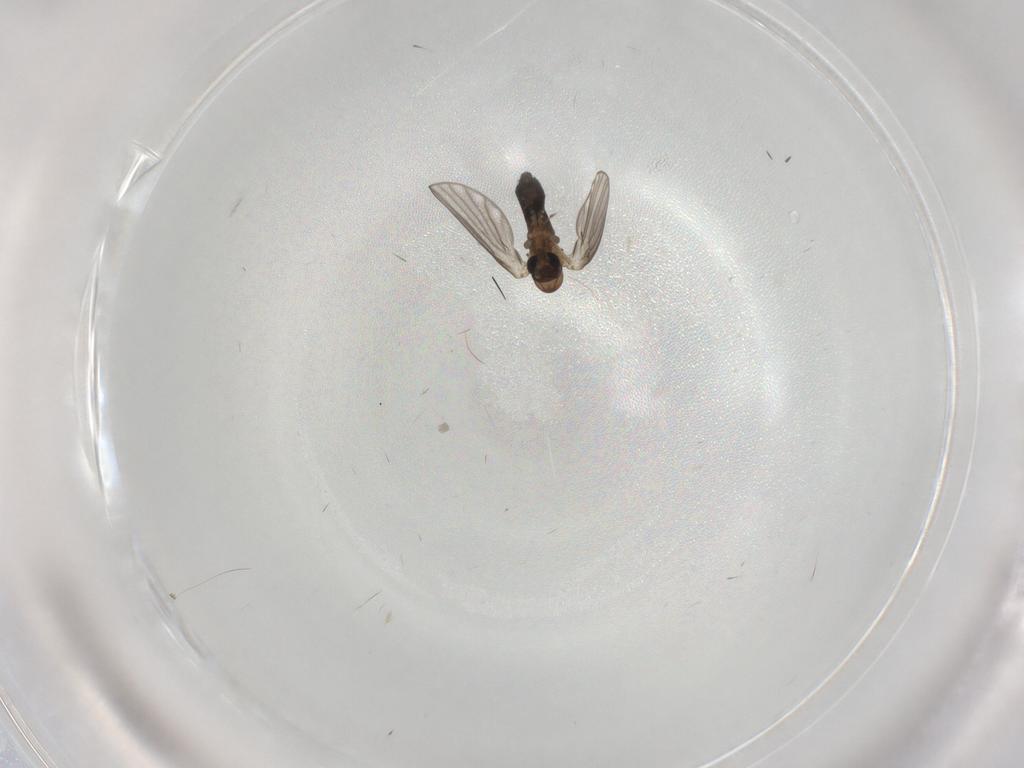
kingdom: Animalia
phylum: Arthropoda
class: Insecta
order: Diptera
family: Psychodidae
